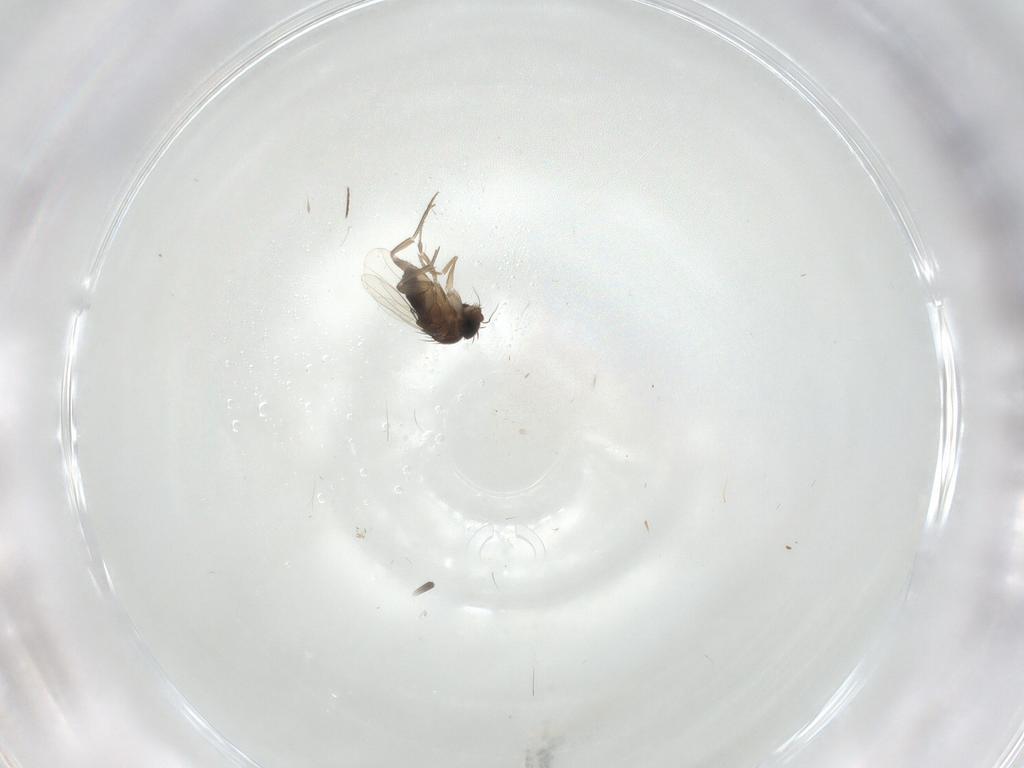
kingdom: Animalia
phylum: Arthropoda
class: Insecta
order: Diptera
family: Phoridae
